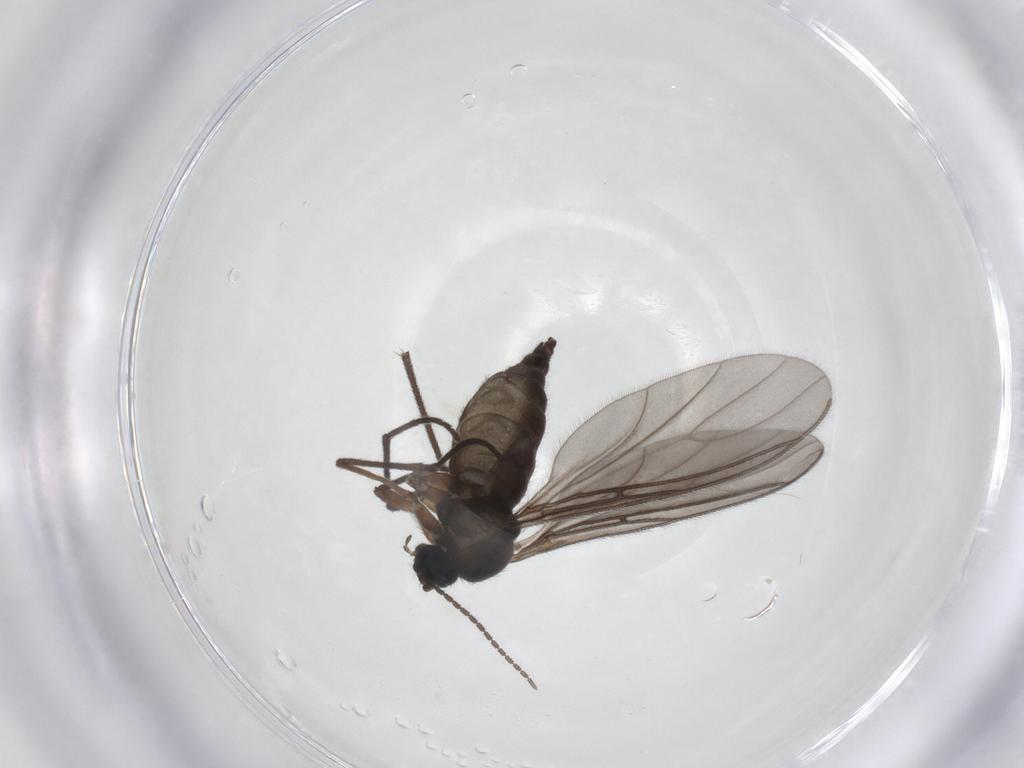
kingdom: Animalia
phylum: Arthropoda
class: Insecta
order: Diptera
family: Sciaridae
